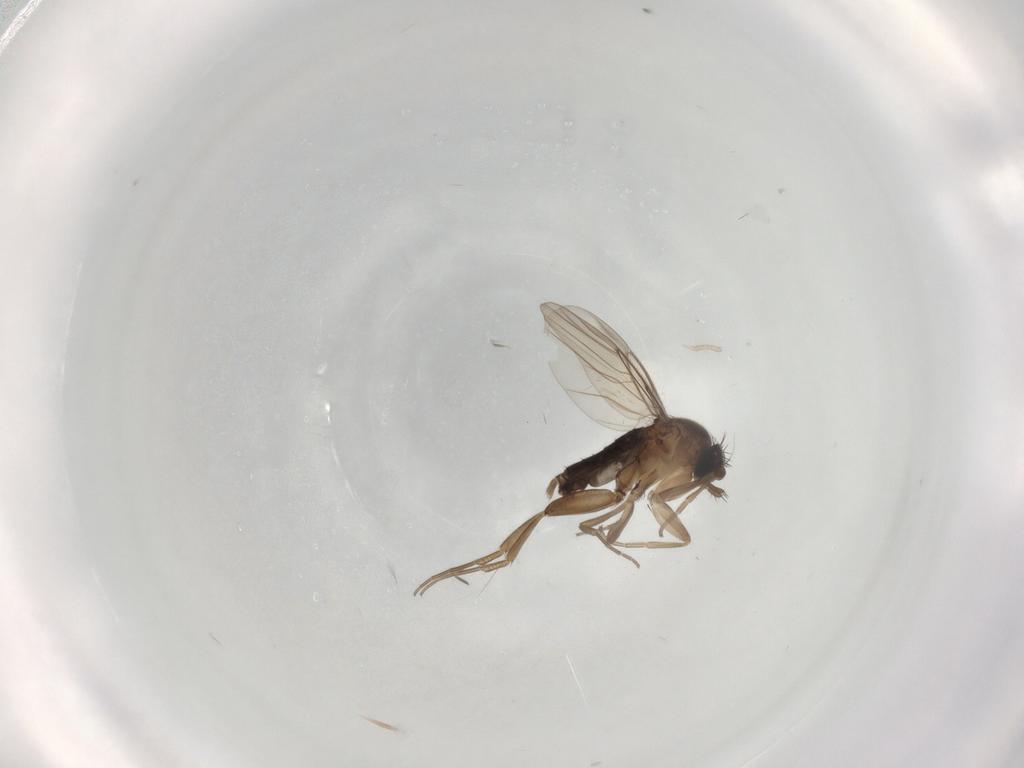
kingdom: Animalia
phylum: Arthropoda
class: Insecta
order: Diptera
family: Phoridae
